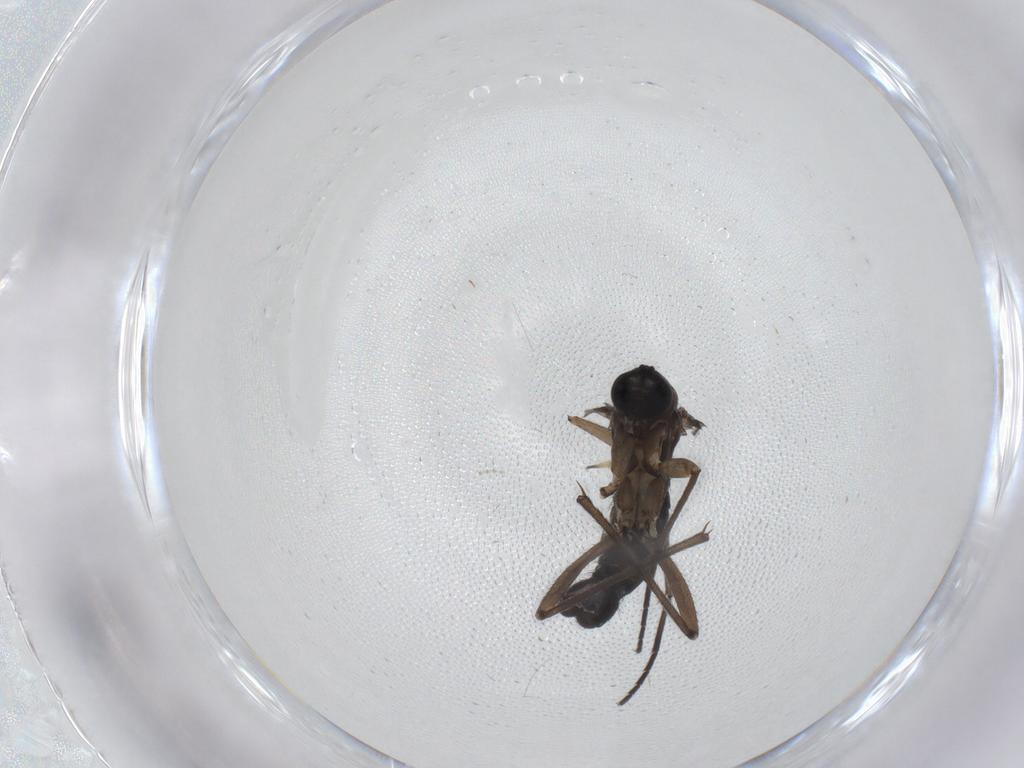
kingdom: Animalia
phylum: Arthropoda
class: Insecta
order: Diptera
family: Sciaridae
